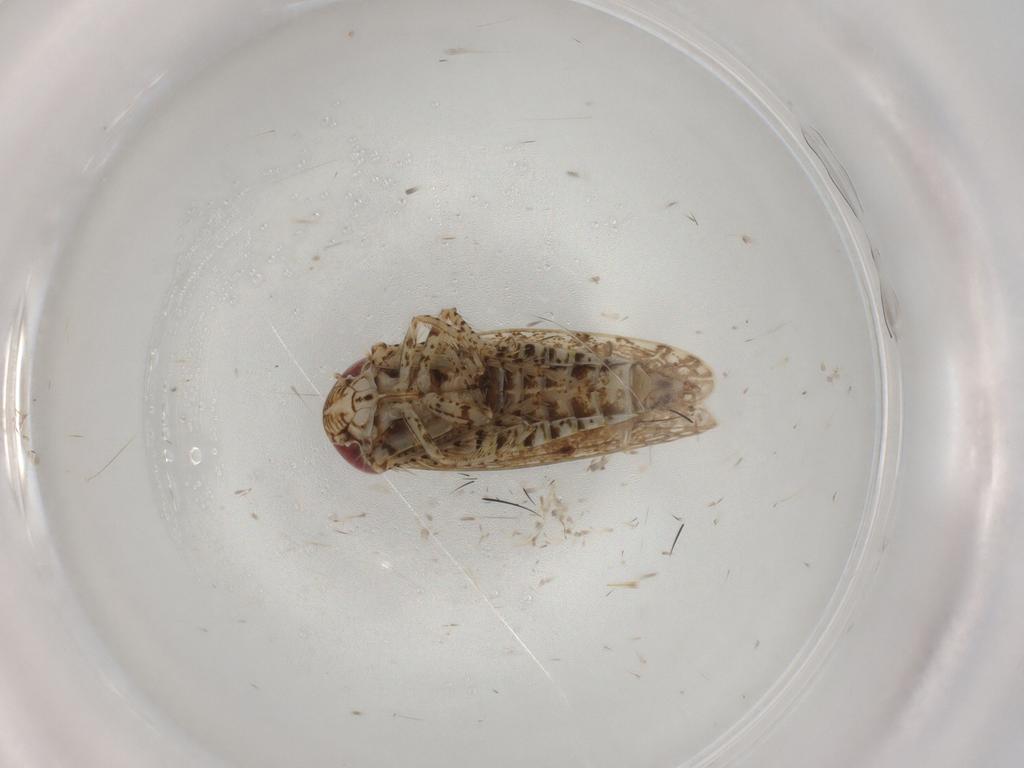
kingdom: Animalia
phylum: Arthropoda
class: Insecta
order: Hemiptera
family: Cicadellidae
